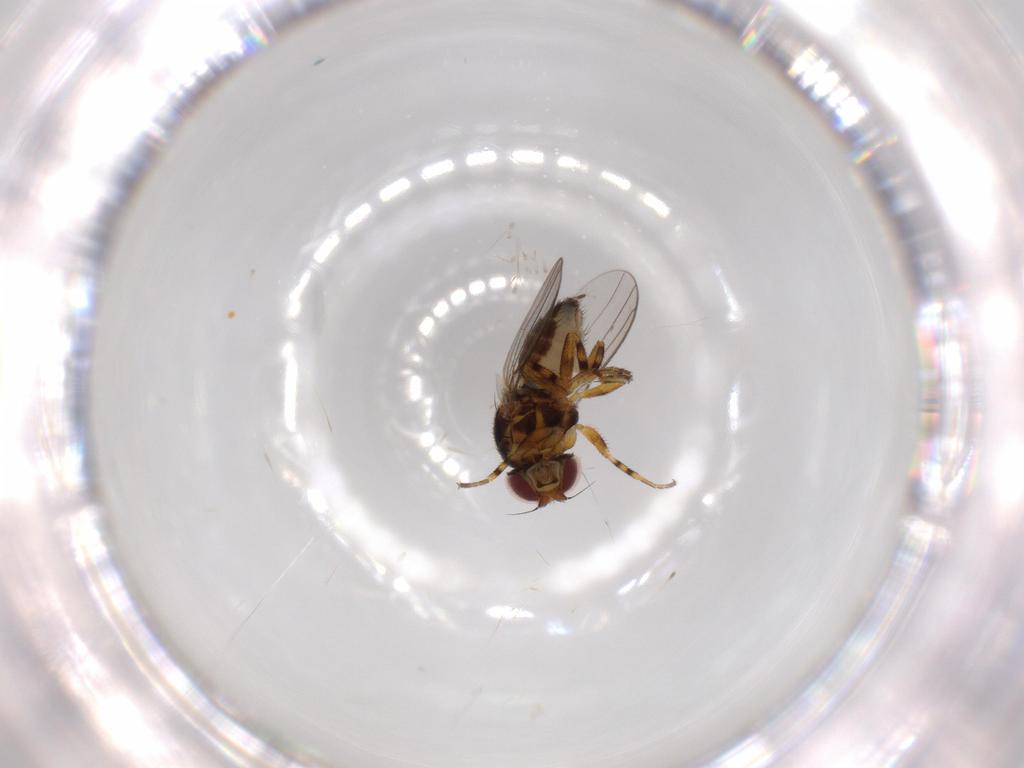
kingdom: Animalia
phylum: Arthropoda
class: Insecta
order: Diptera
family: Chloropidae
